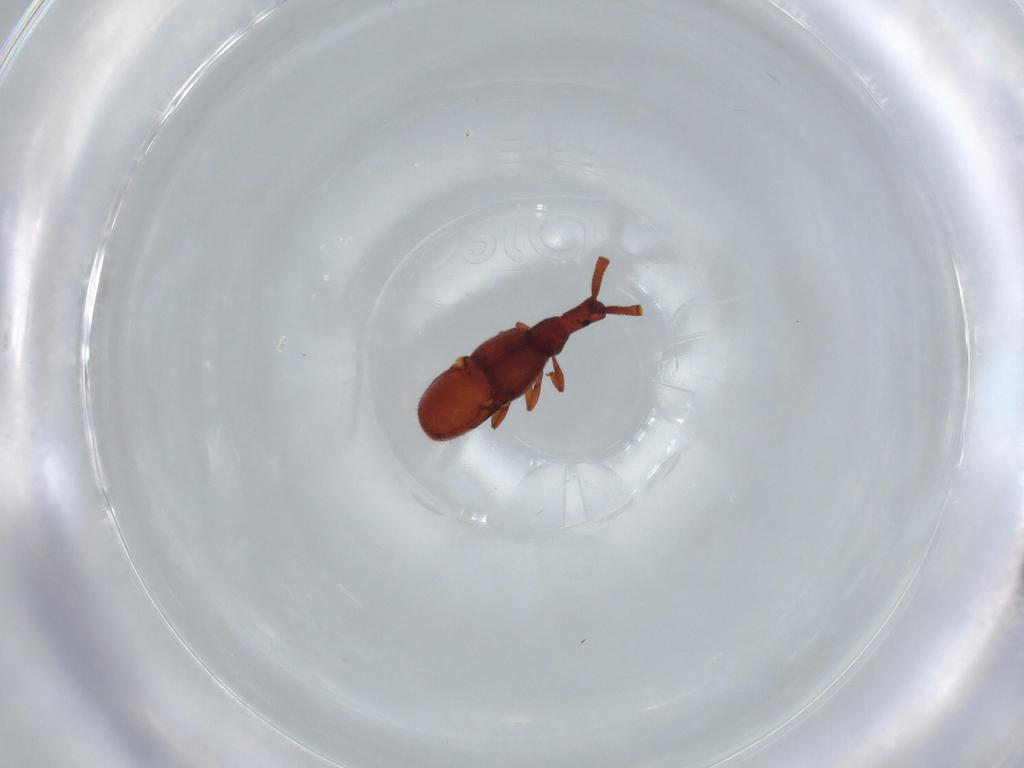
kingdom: Animalia
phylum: Arthropoda
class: Insecta
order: Coleoptera
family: Staphylinidae
